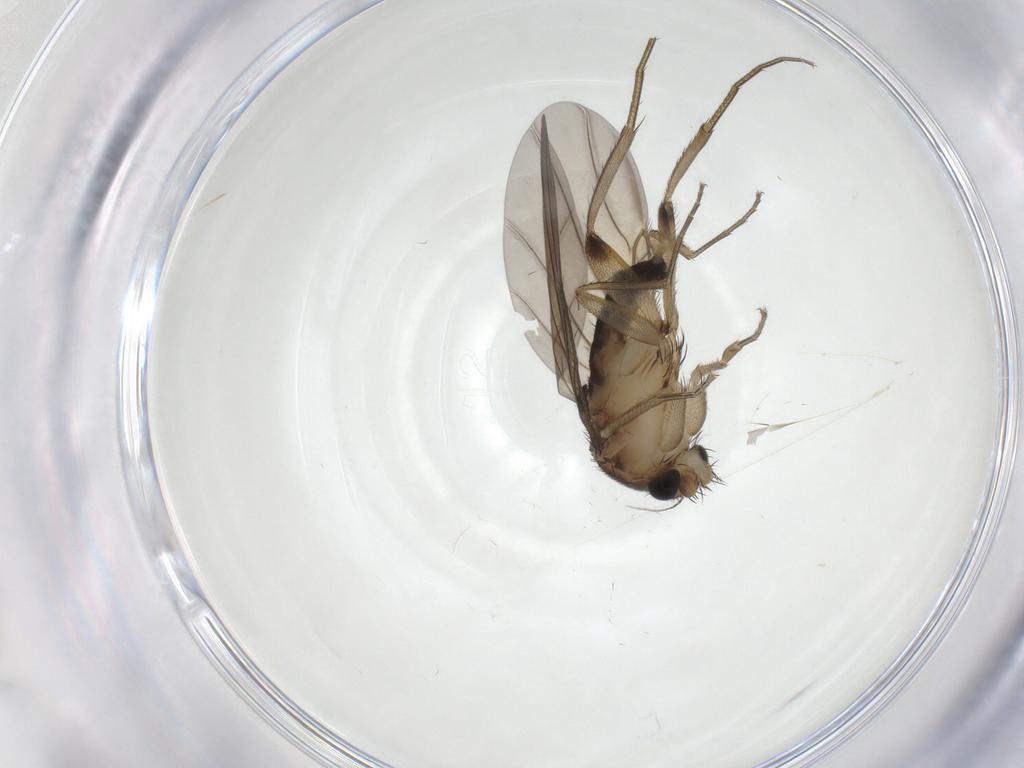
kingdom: Animalia
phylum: Arthropoda
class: Insecta
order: Diptera
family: Phoridae
